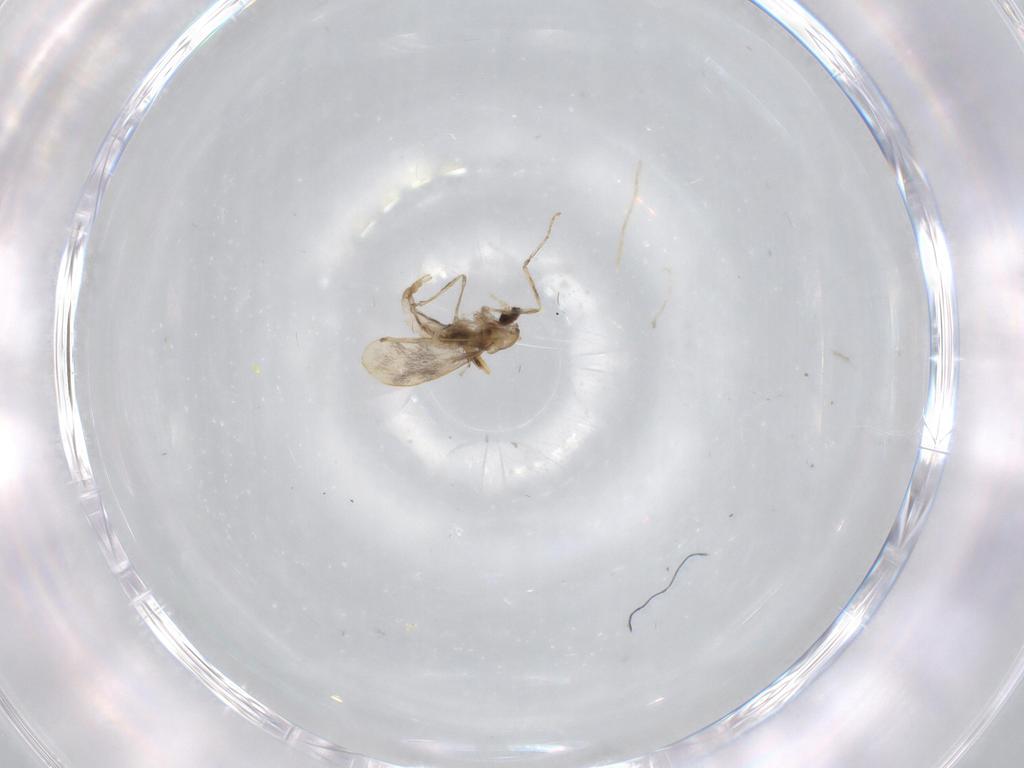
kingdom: Animalia
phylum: Arthropoda
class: Insecta
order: Diptera
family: Cecidomyiidae
